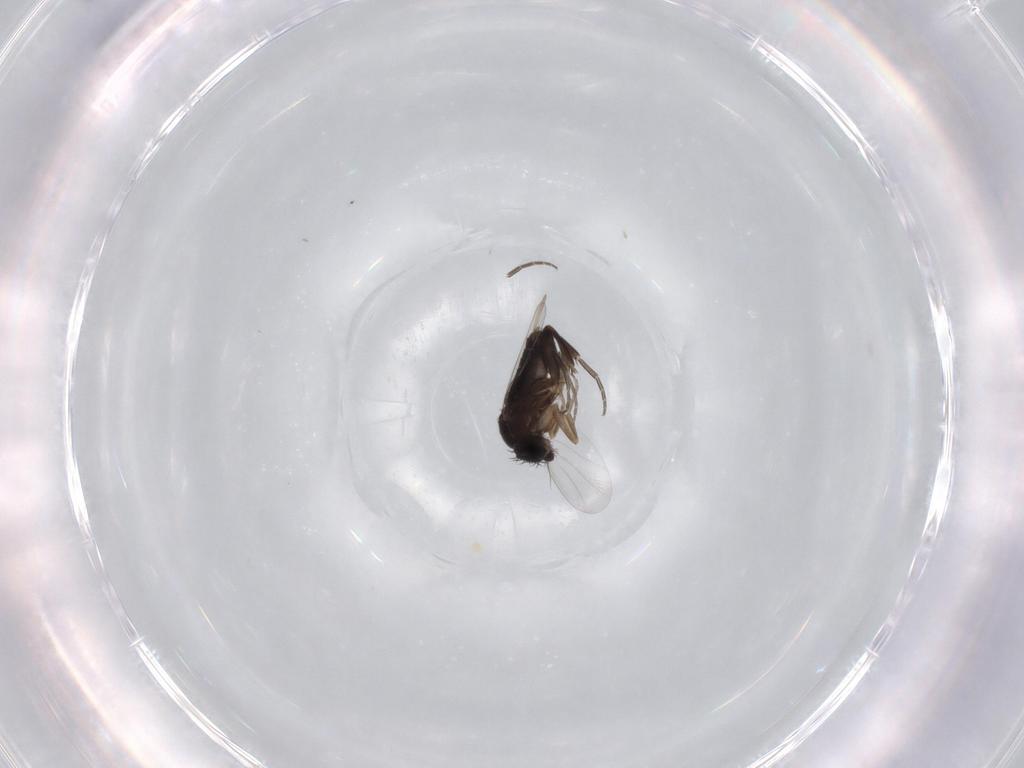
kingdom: Animalia
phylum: Arthropoda
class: Insecta
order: Diptera
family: Phoridae
